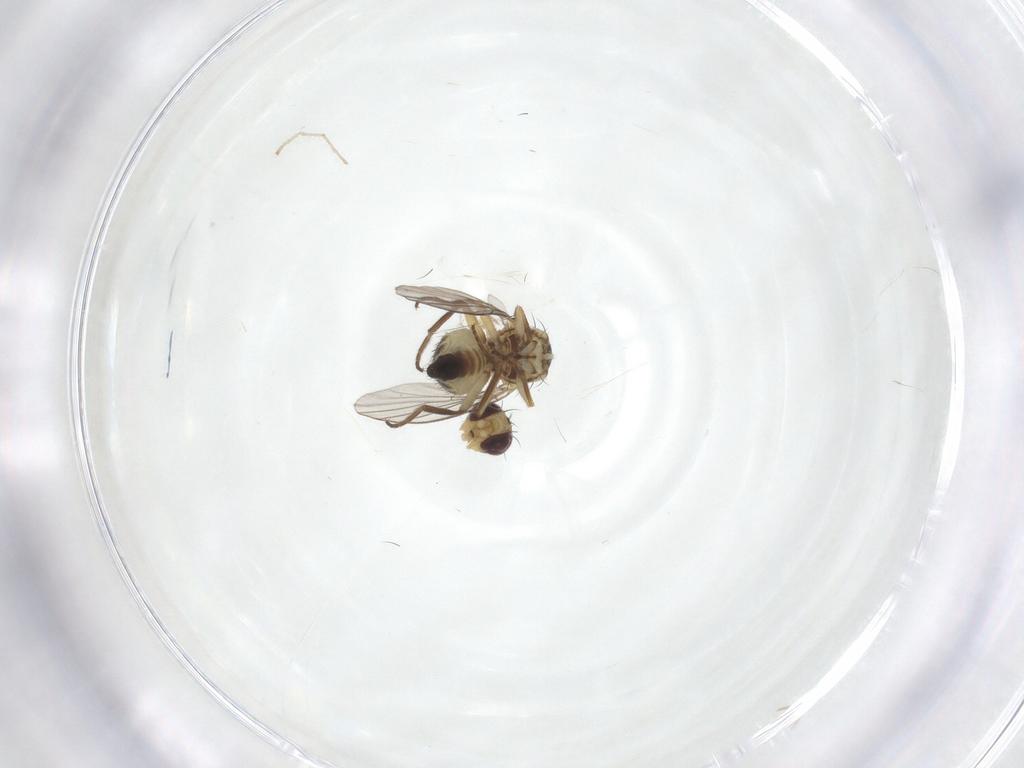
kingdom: Animalia
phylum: Arthropoda
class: Insecta
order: Diptera
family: Agromyzidae
